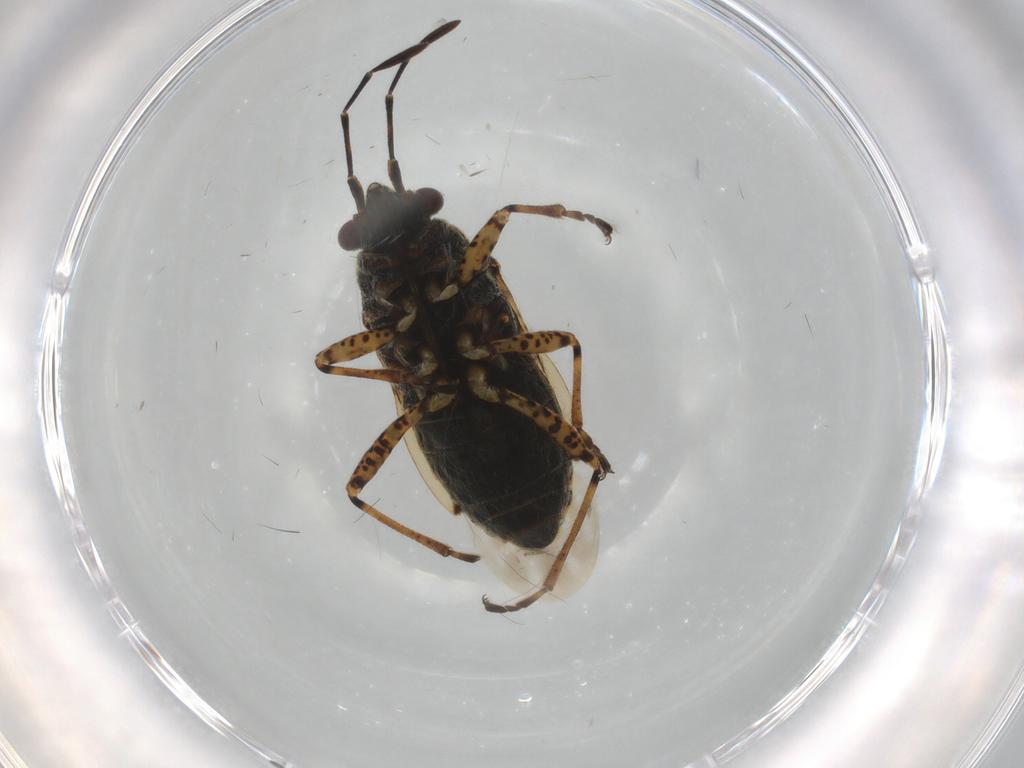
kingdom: Animalia
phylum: Arthropoda
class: Insecta
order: Hemiptera
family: Lygaeidae
